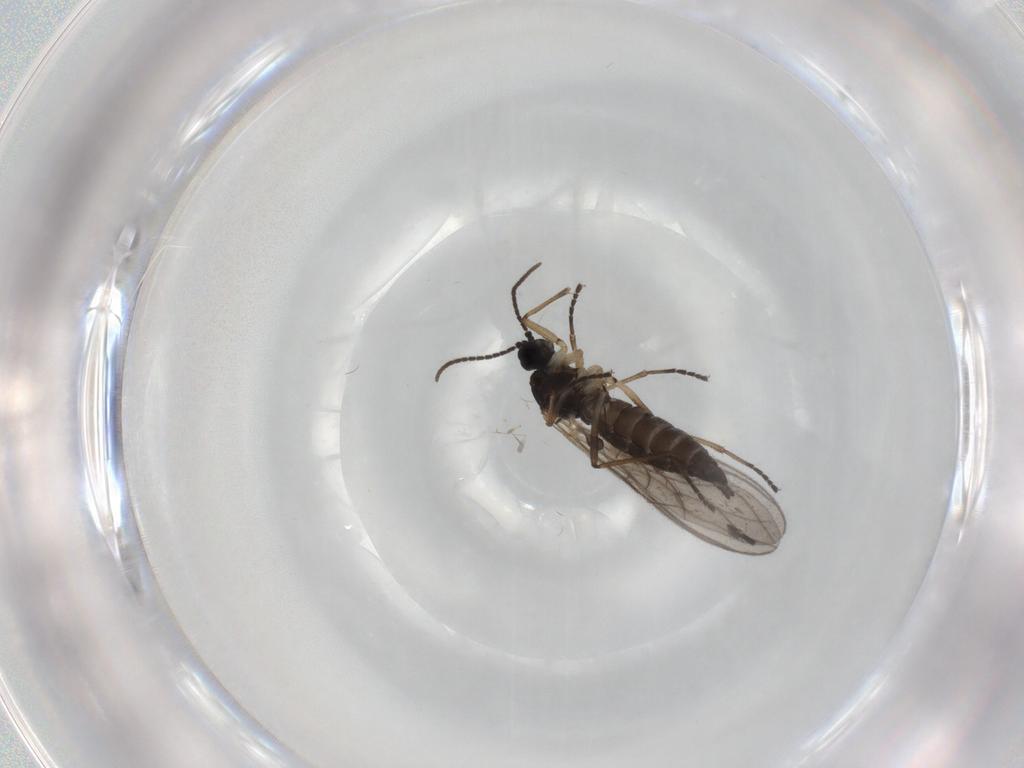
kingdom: Animalia
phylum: Arthropoda
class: Insecta
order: Diptera
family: Sciaridae
